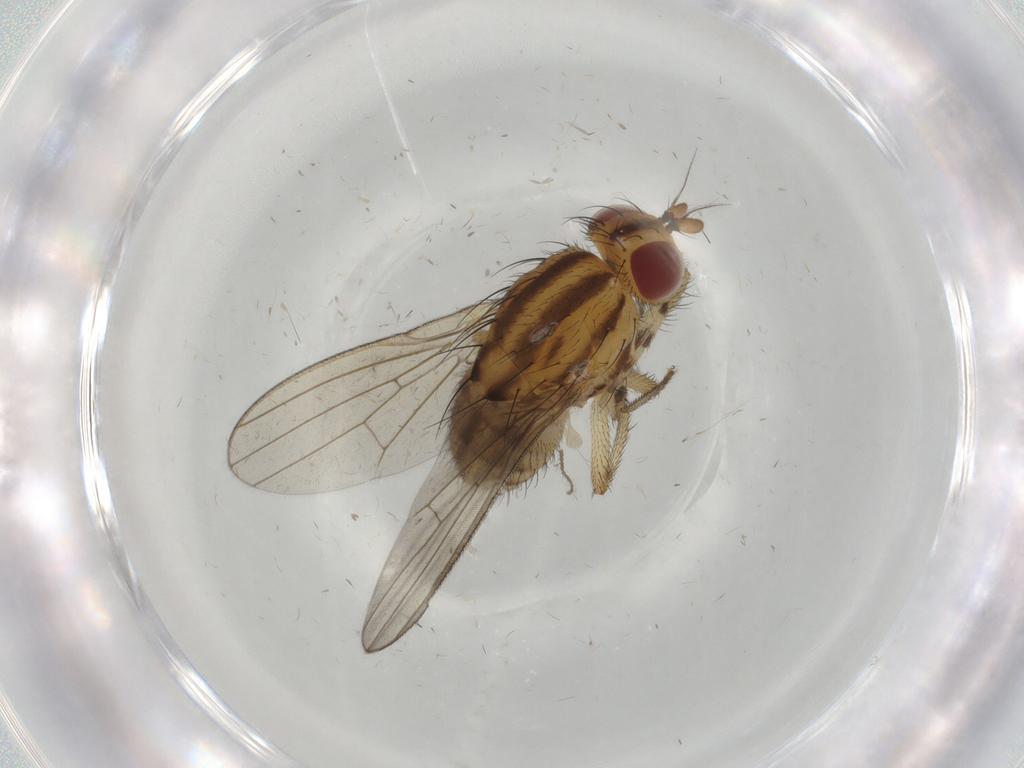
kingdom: Animalia
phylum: Arthropoda
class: Insecta
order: Diptera
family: Chironomidae
